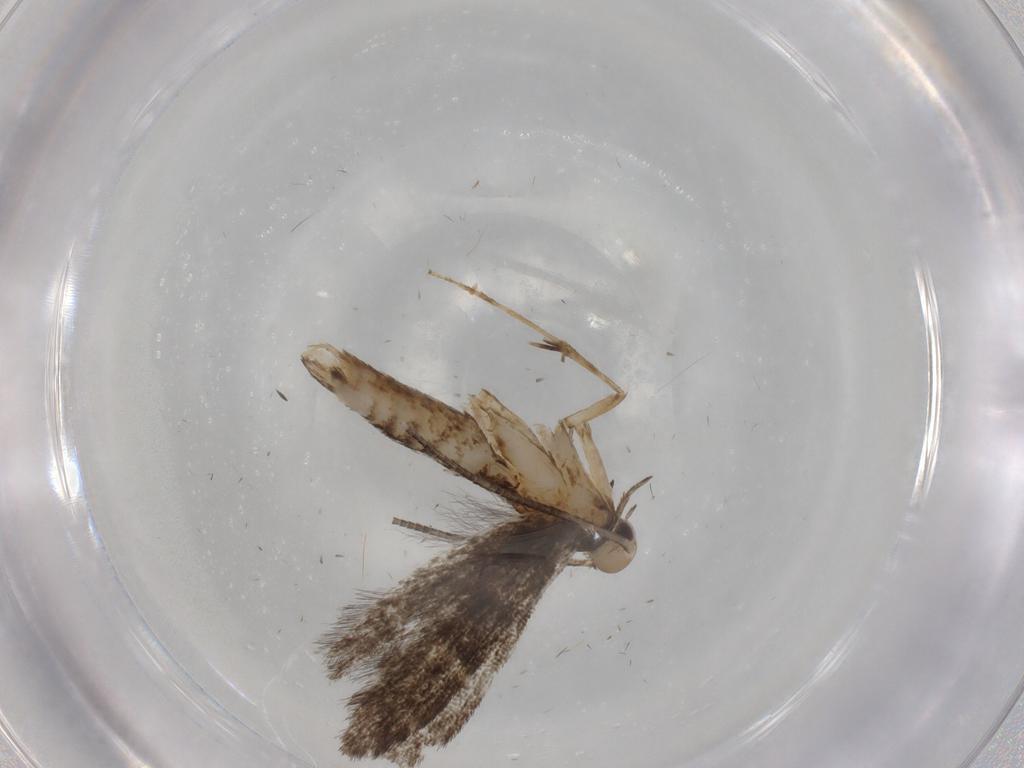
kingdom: Animalia
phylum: Arthropoda
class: Insecta
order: Lepidoptera
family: Gracillariidae
